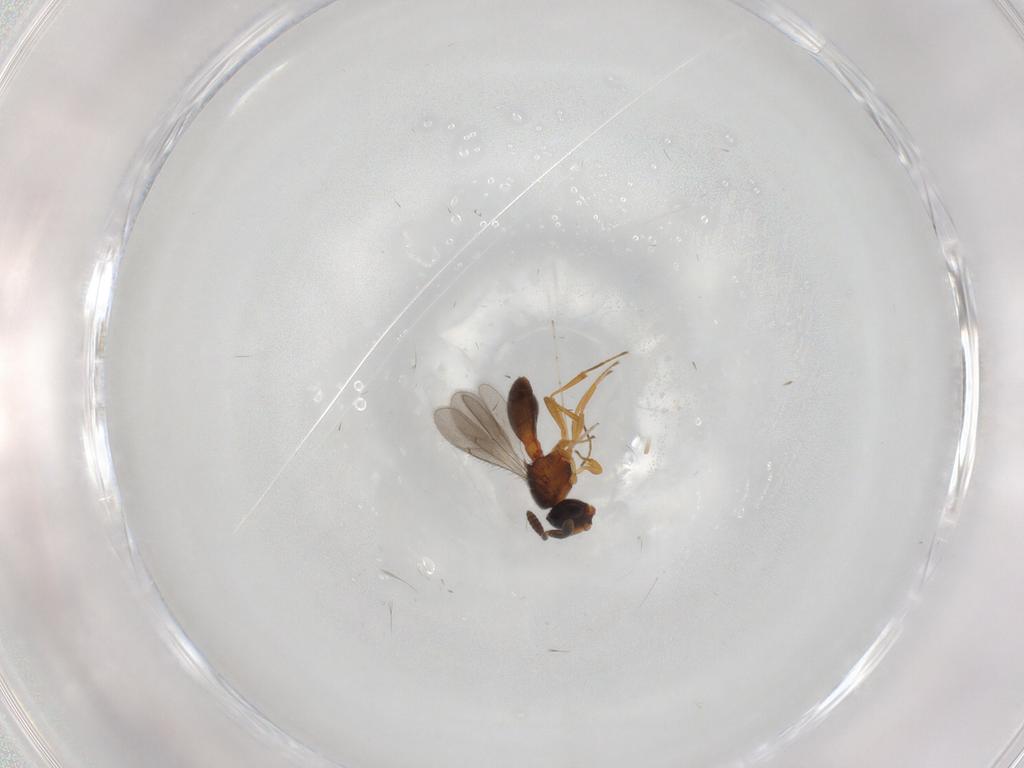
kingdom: Animalia
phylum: Arthropoda
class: Insecta
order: Hymenoptera
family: Scelionidae
